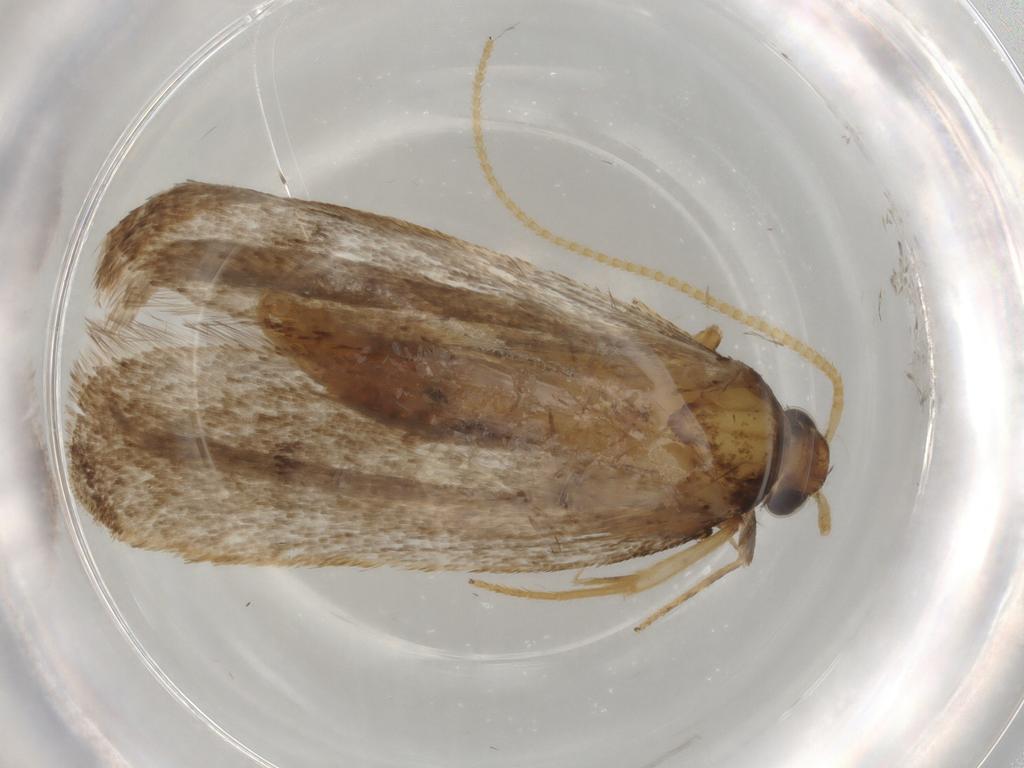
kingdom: Animalia
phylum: Arthropoda
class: Insecta
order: Lepidoptera
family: Lecithoceridae
